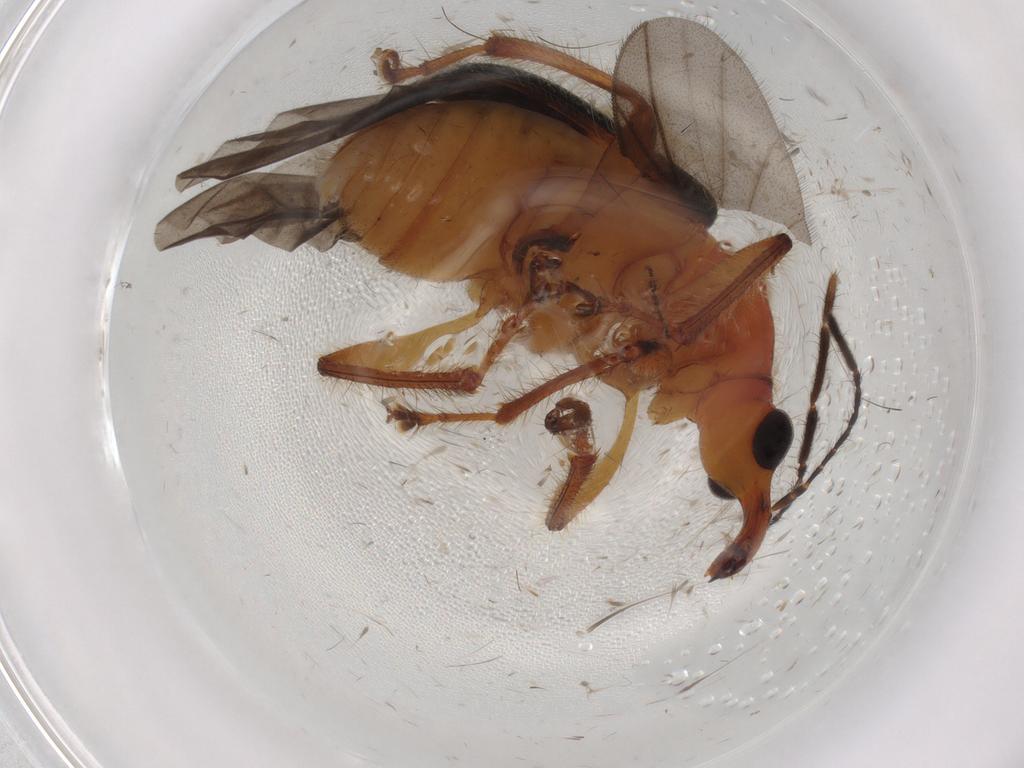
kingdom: Animalia
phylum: Arthropoda
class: Insecta
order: Coleoptera
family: Attelabidae
